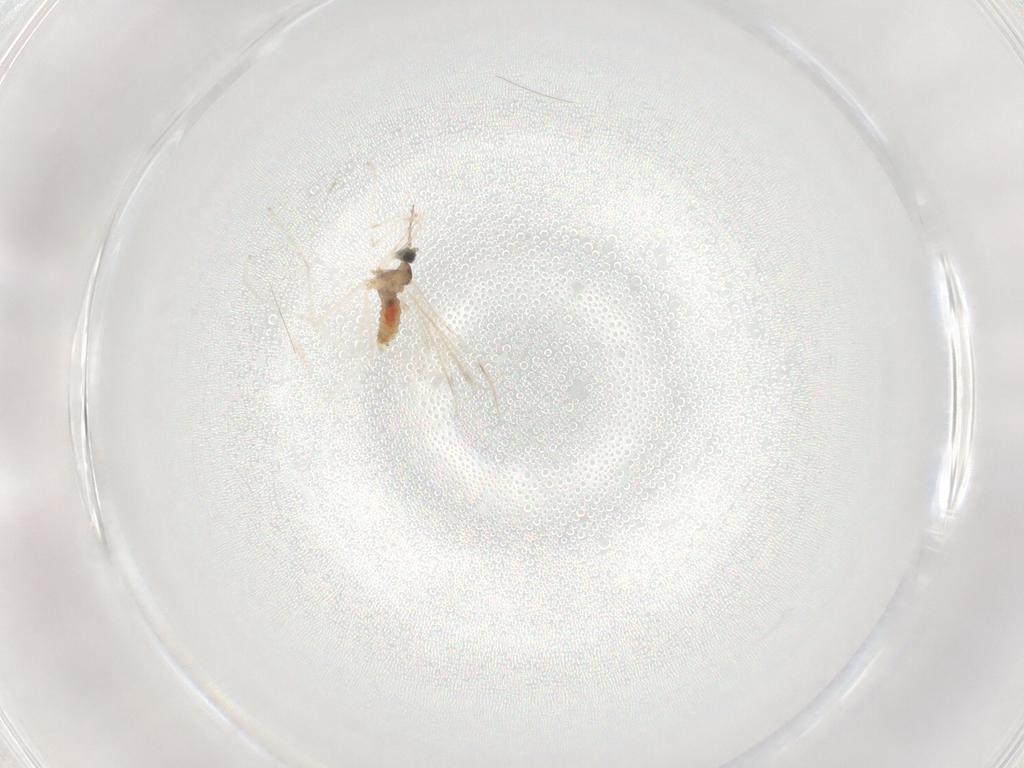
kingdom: Animalia
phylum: Arthropoda
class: Insecta
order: Diptera
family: Cecidomyiidae
